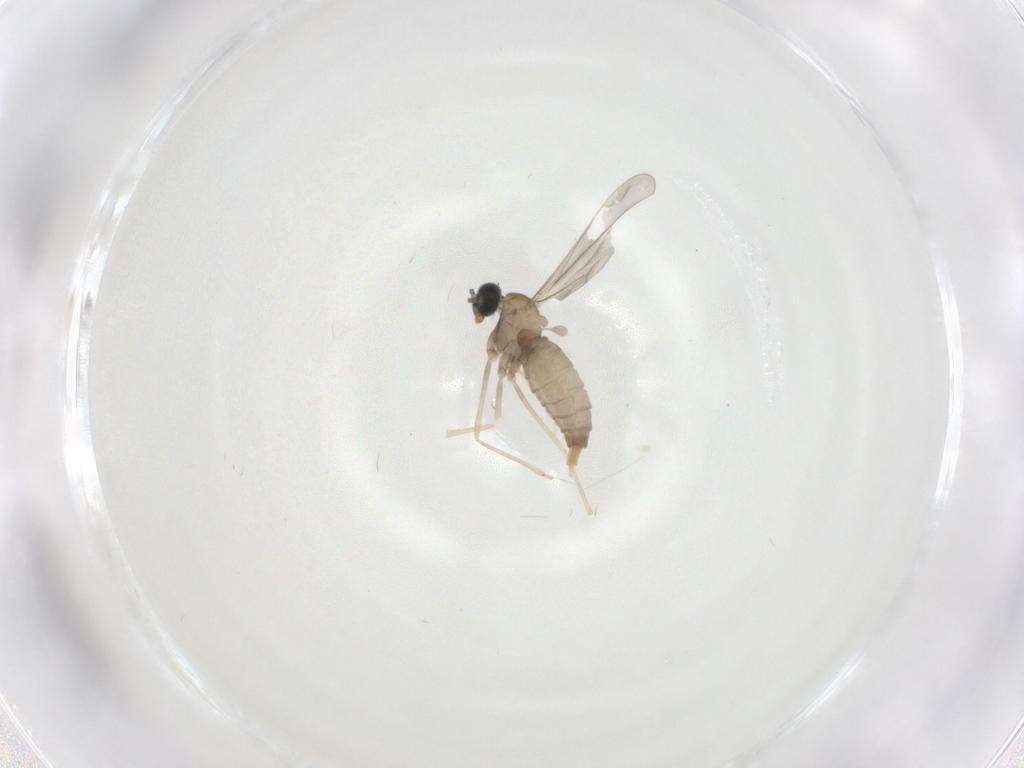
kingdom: Animalia
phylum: Arthropoda
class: Insecta
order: Diptera
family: Cecidomyiidae
